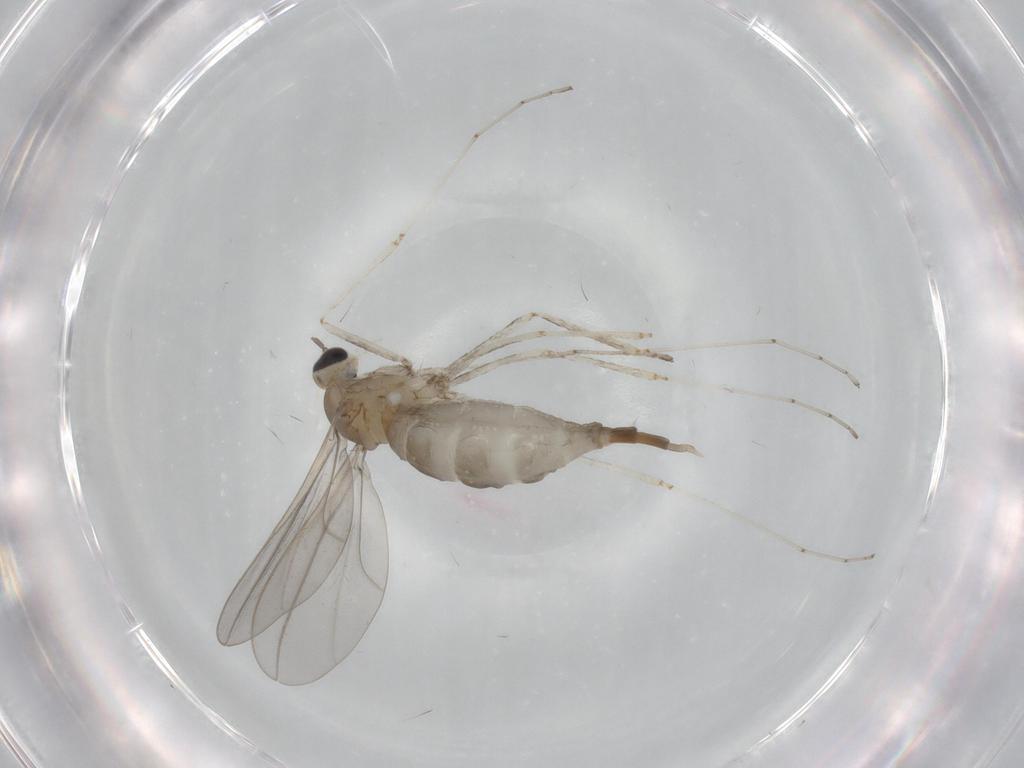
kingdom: Animalia
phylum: Arthropoda
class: Insecta
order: Diptera
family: Cecidomyiidae
